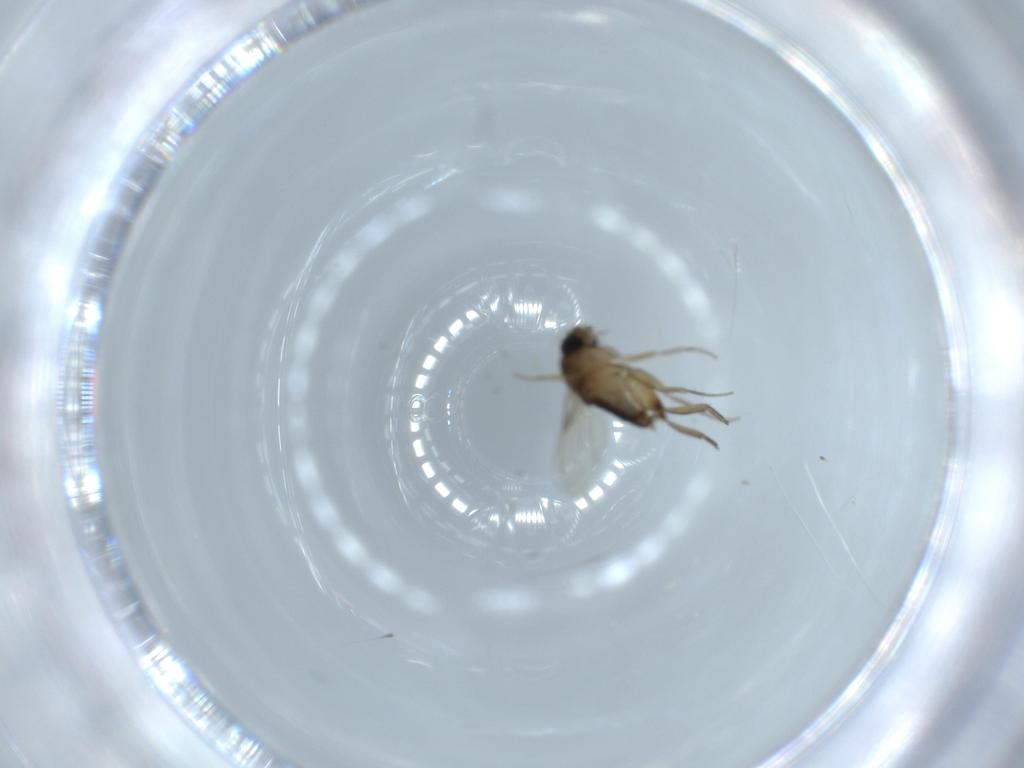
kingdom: Animalia
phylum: Arthropoda
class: Insecta
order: Diptera
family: Phoridae
